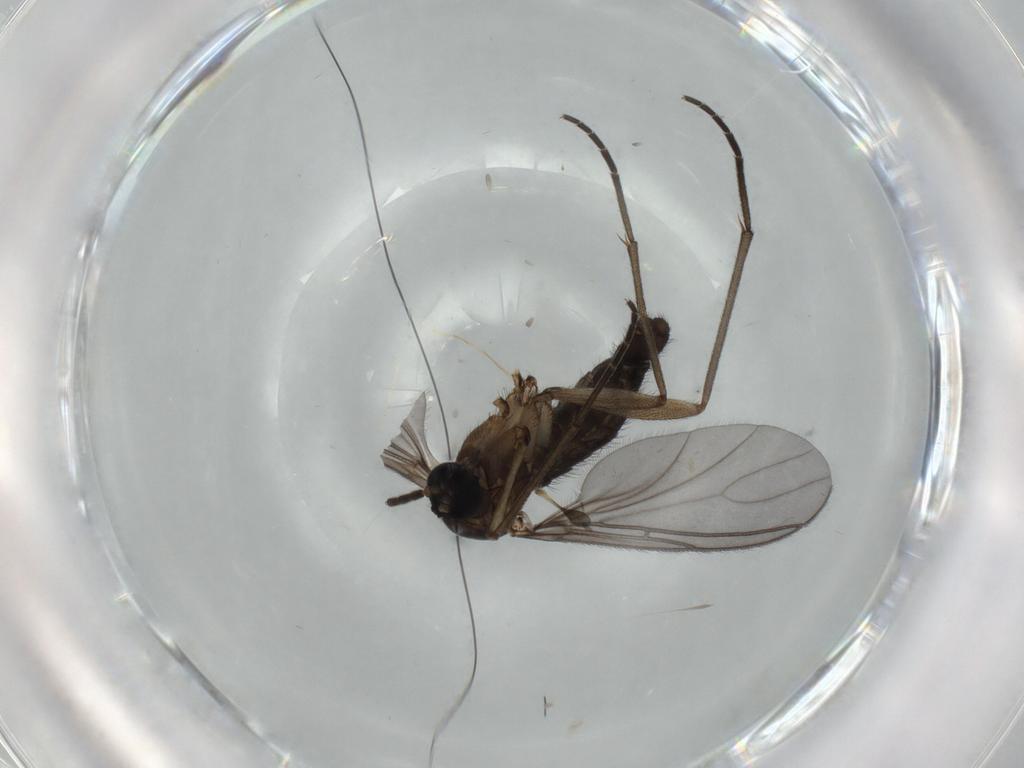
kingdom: Animalia
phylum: Arthropoda
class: Insecta
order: Diptera
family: Sciaridae
